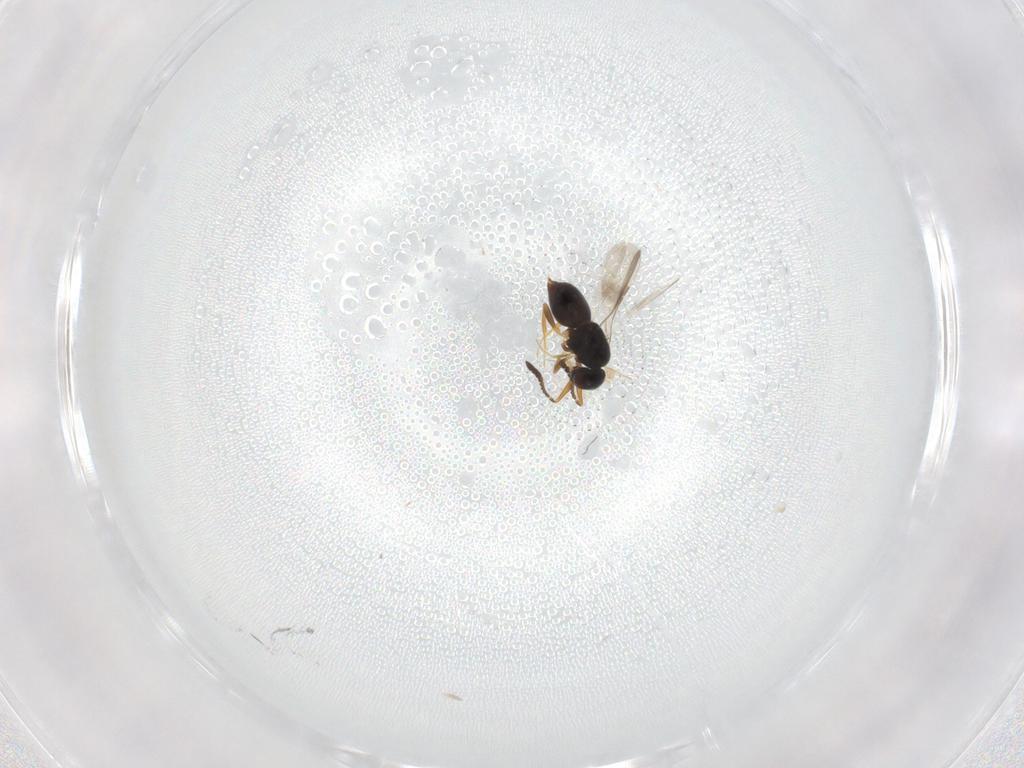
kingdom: Animalia
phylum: Arthropoda
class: Insecta
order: Hymenoptera
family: Ceraphronidae
